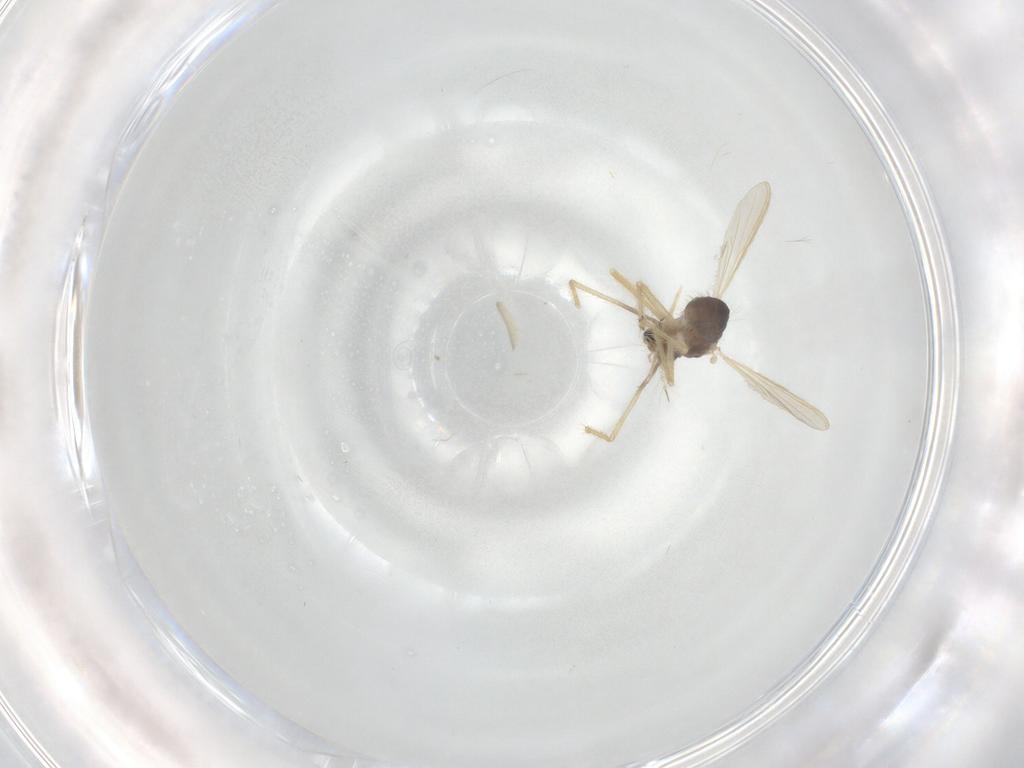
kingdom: Animalia
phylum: Arthropoda
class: Insecta
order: Diptera
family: Chironomidae
